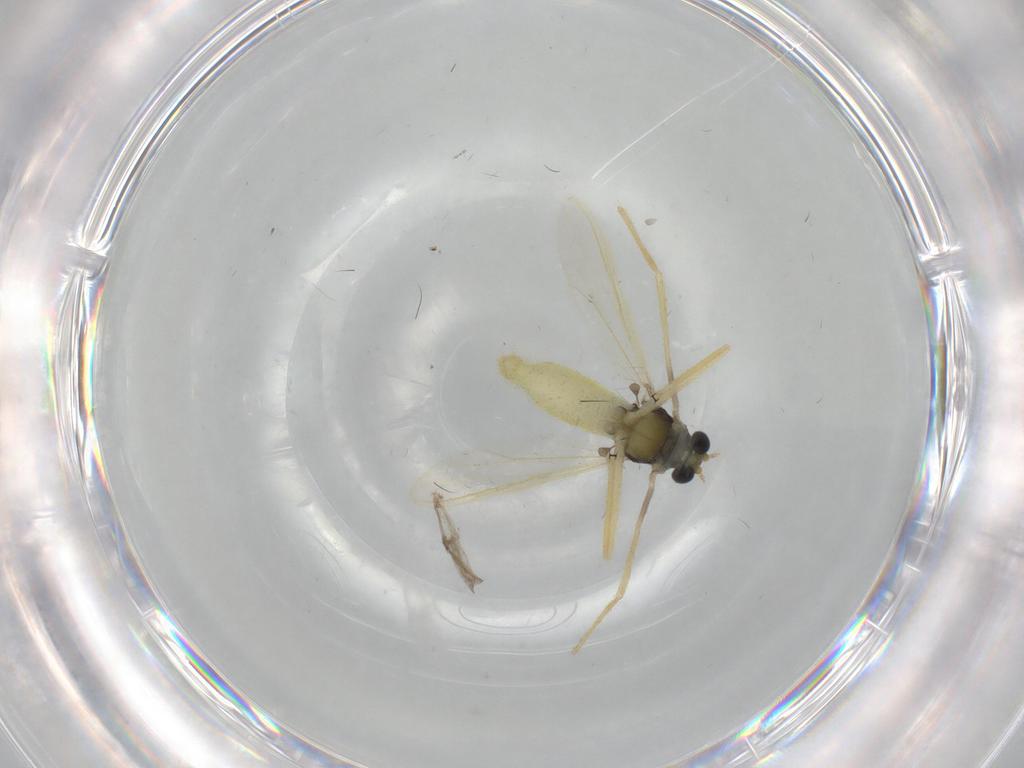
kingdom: Animalia
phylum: Arthropoda
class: Insecta
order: Diptera
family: Chironomidae
